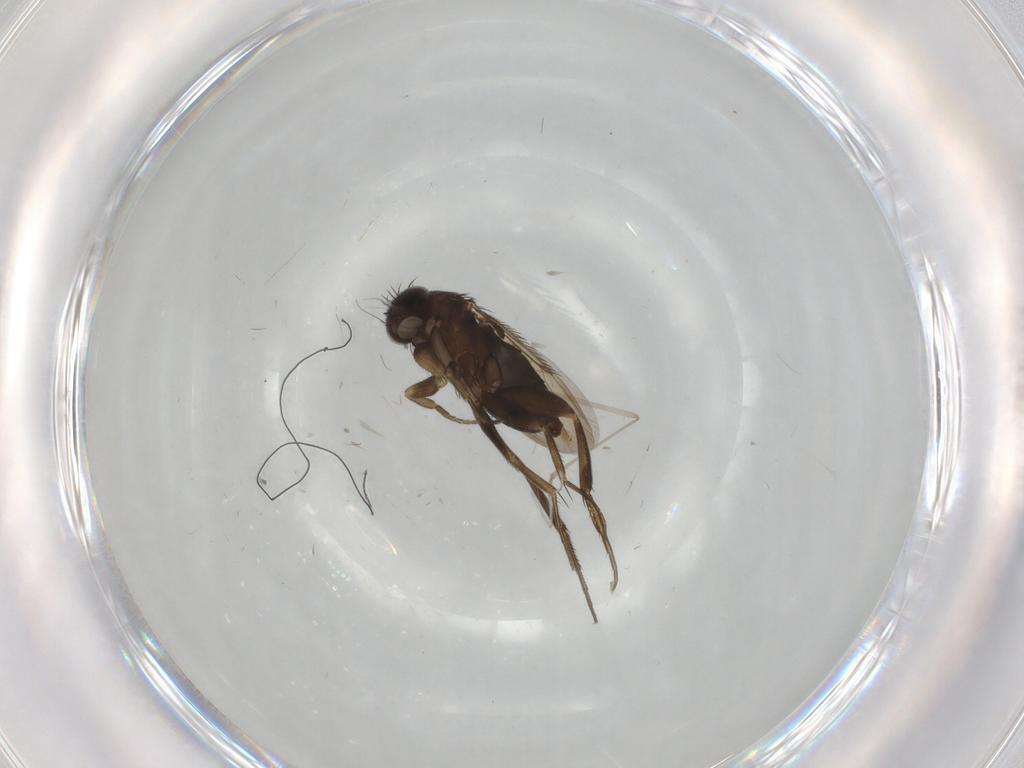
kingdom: Animalia
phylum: Arthropoda
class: Insecta
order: Diptera
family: Phoridae
